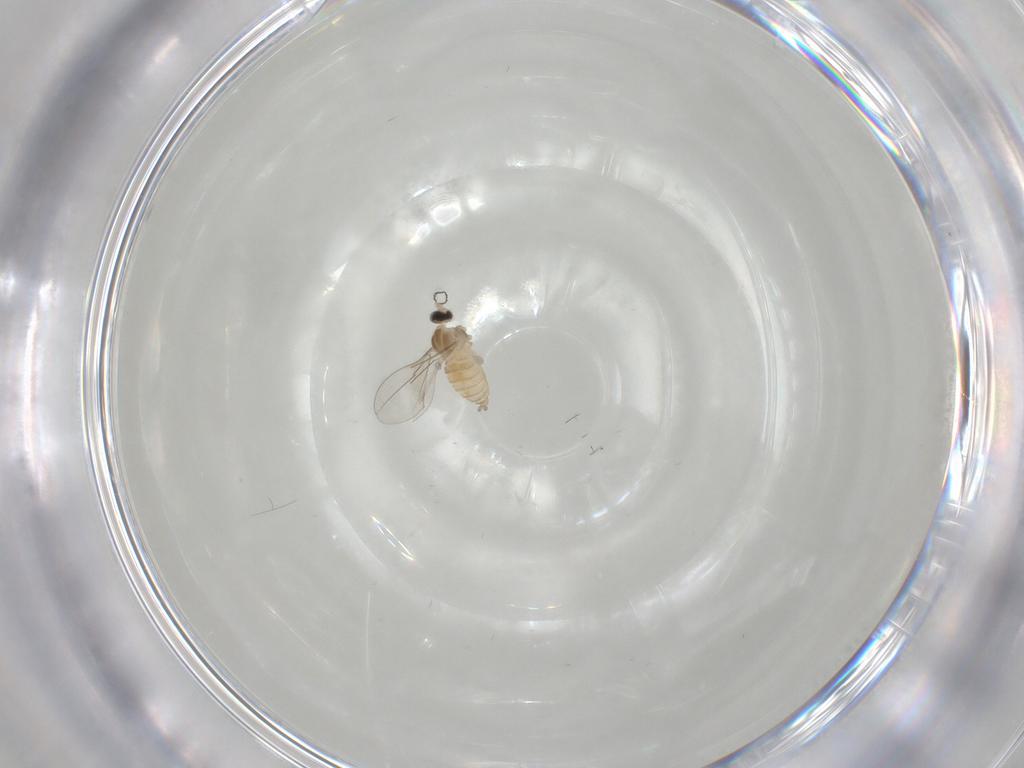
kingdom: Animalia
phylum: Arthropoda
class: Insecta
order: Diptera
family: Cecidomyiidae
